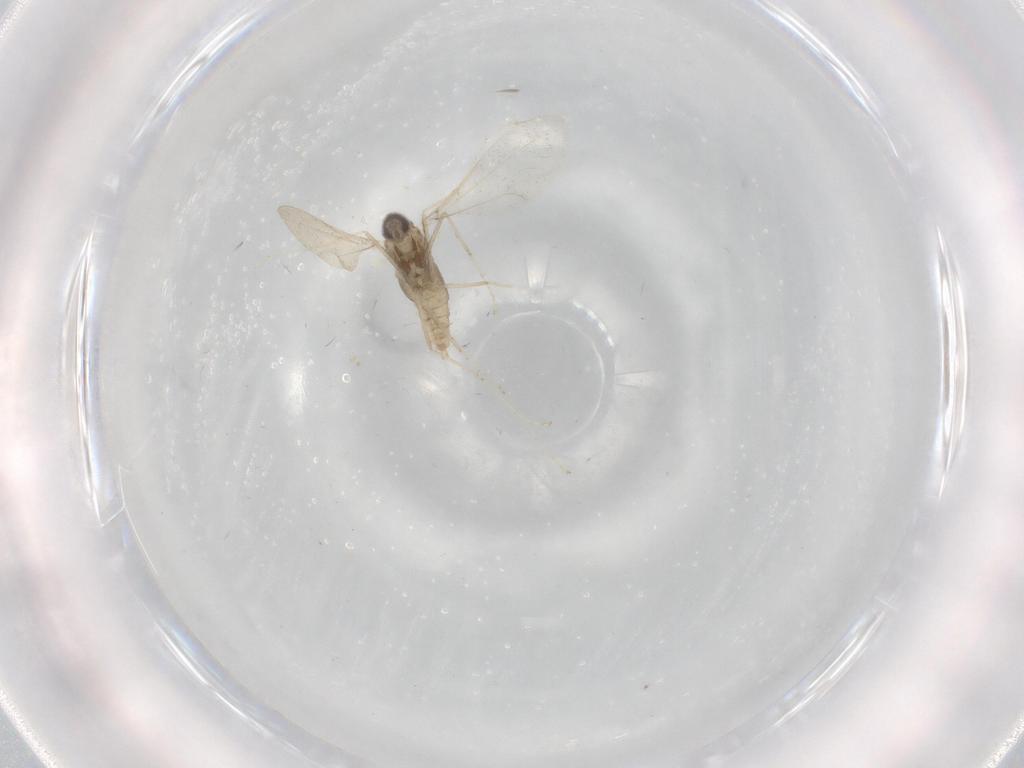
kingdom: Animalia
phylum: Arthropoda
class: Insecta
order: Diptera
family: Cecidomyiidae
